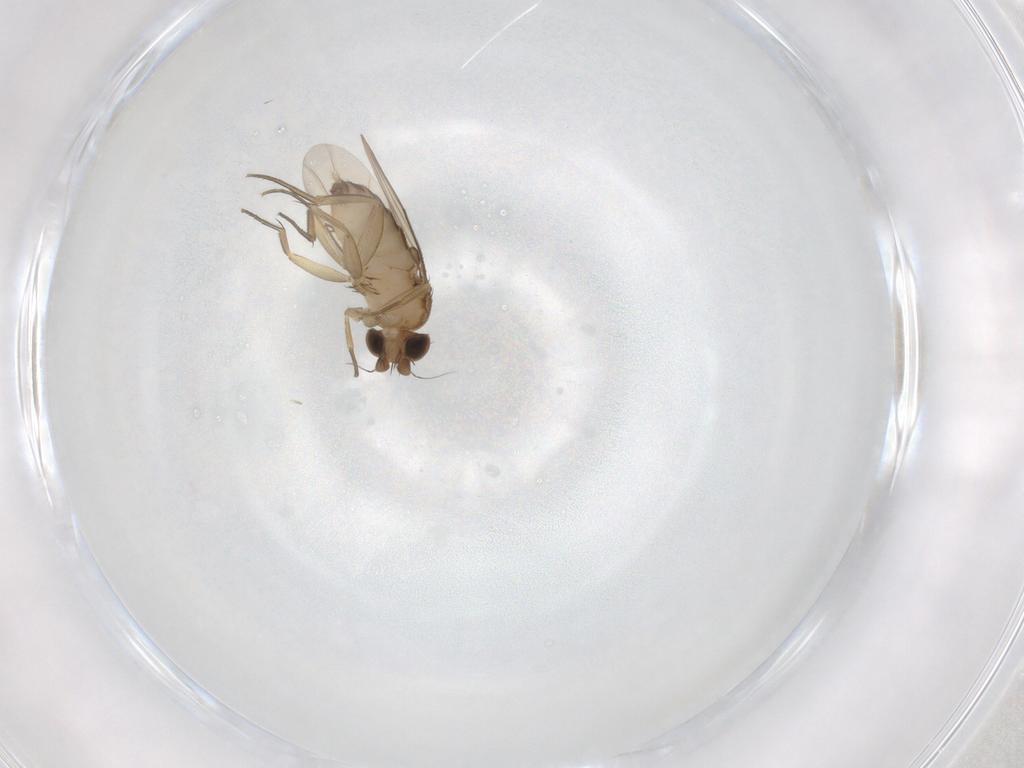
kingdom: Animalia
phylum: Arthropoda
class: Insecta
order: Diptera
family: Phoridae
